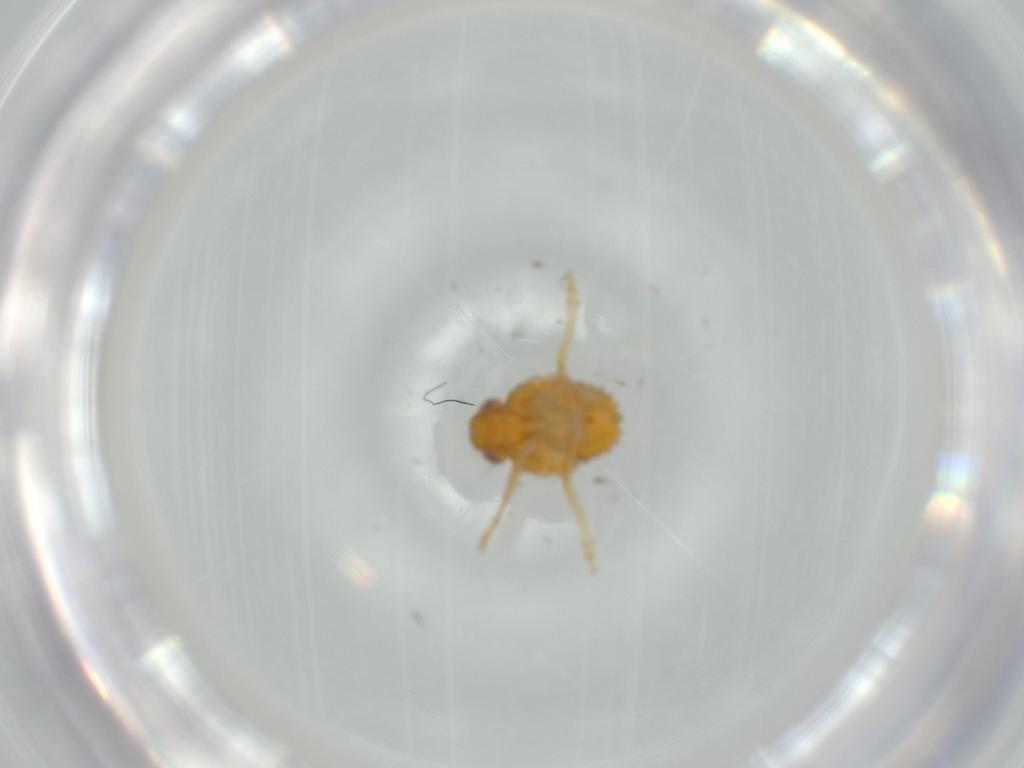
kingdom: Animalia
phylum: Arthropoda
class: Insecta
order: Hemiptera
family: Issidae
